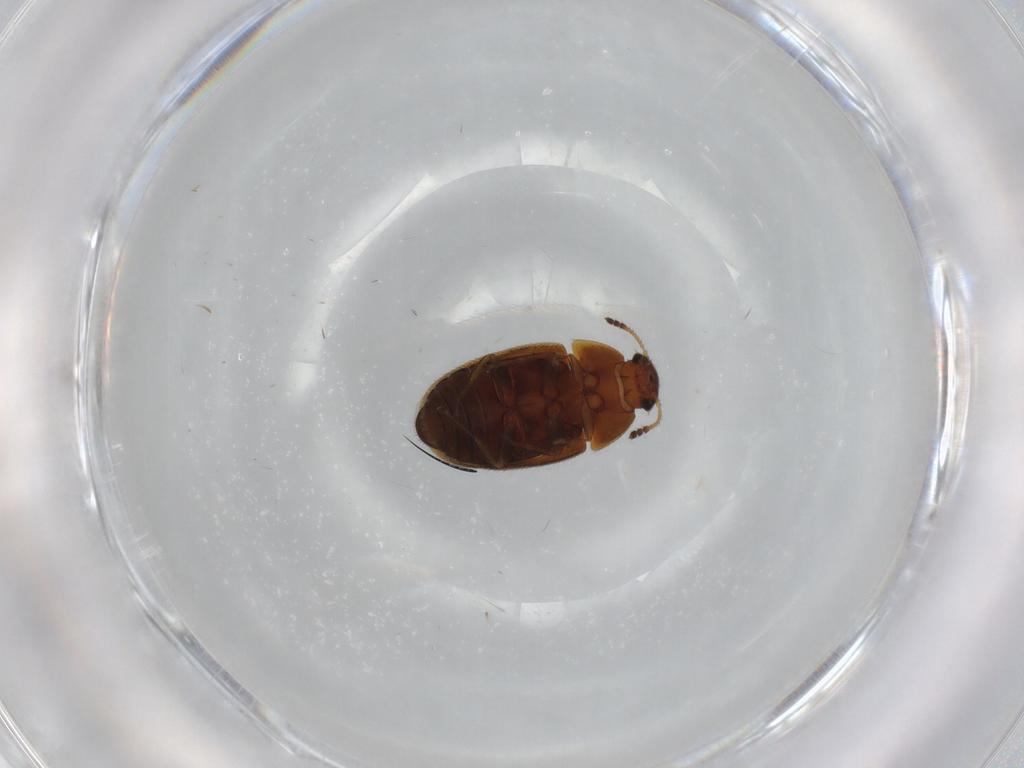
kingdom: Animalia
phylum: Arthropoda
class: Insecta
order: Coleoptera
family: Mycetophagidae
